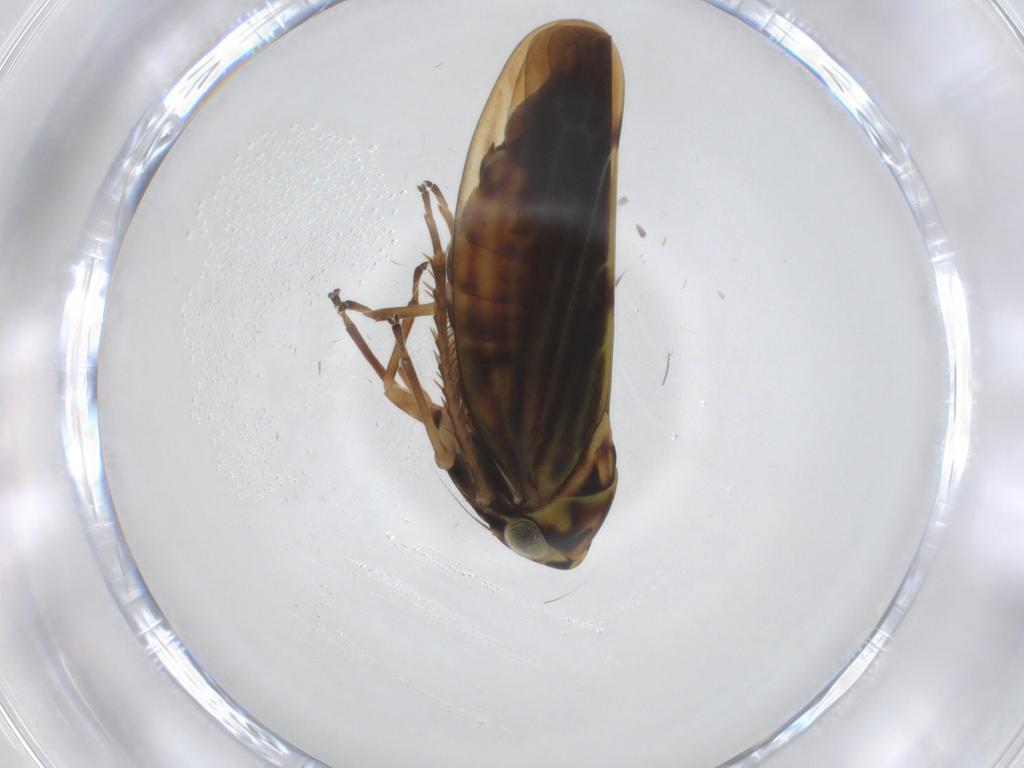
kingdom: Animalia
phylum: Arthropoda
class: Insecta
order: Hemiptera
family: Cicadellidae
